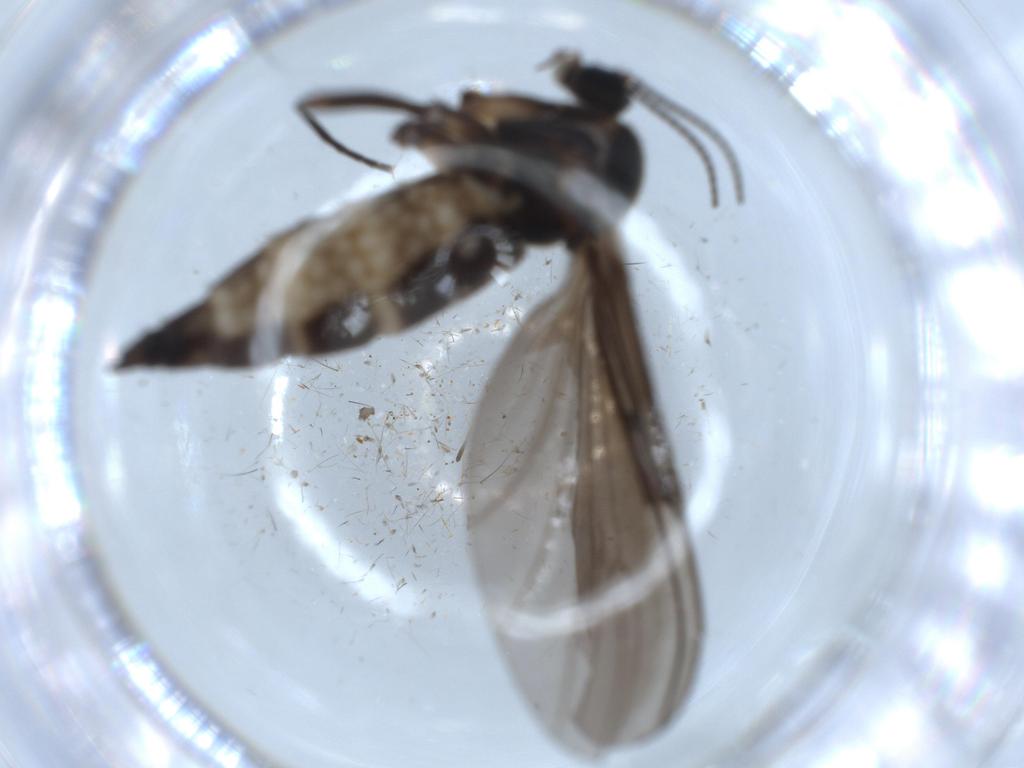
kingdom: Animalia
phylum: Arthropoda
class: Insecta
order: Diptera
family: Sciaridae
